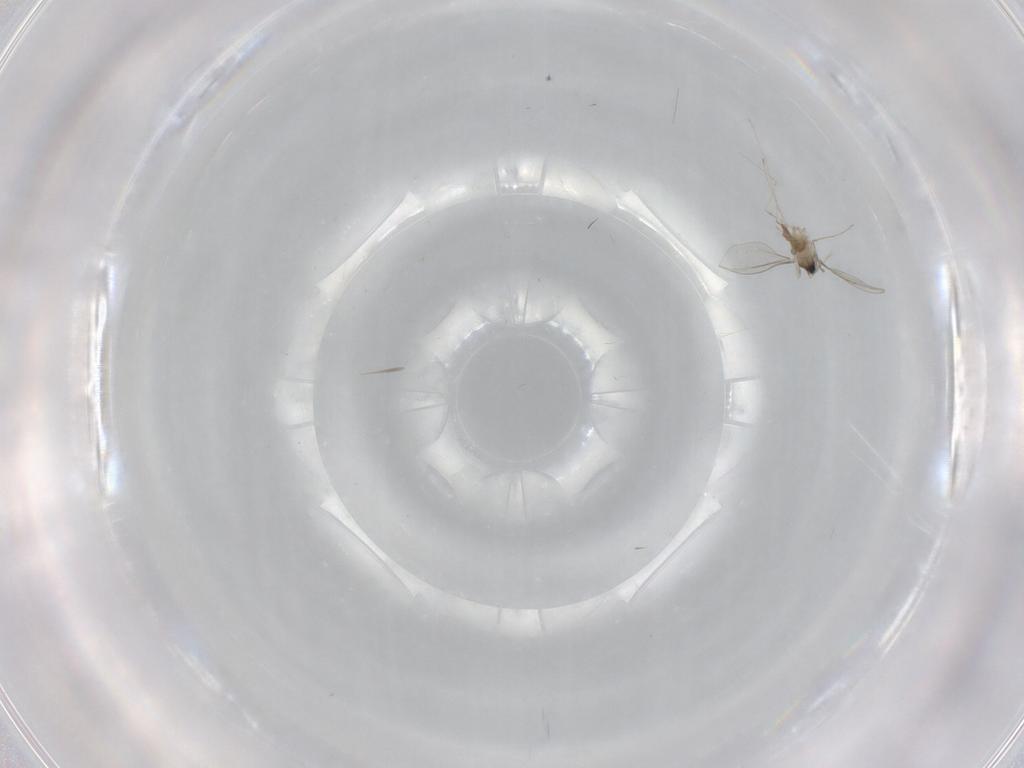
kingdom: Animalia
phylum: Arthropoda
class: Insecta
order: Diptera
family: Cecidomyiidae
